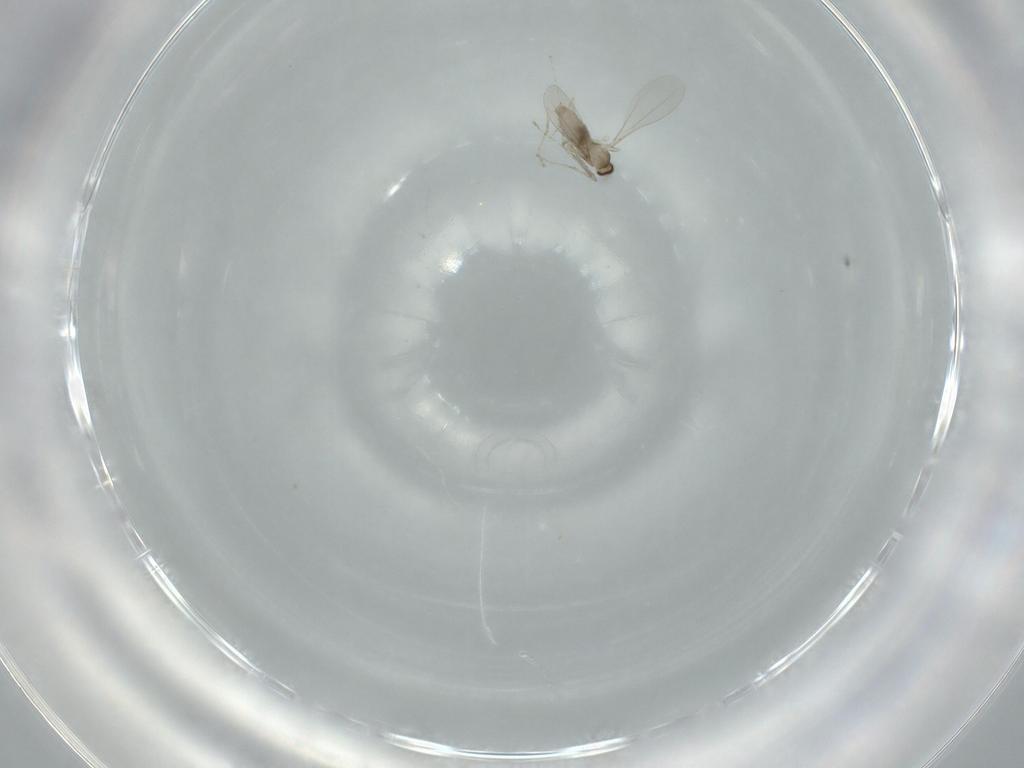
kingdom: Animalia
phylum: Arthropoda
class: Insecta
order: Diptera
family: Cecidomyiidae
